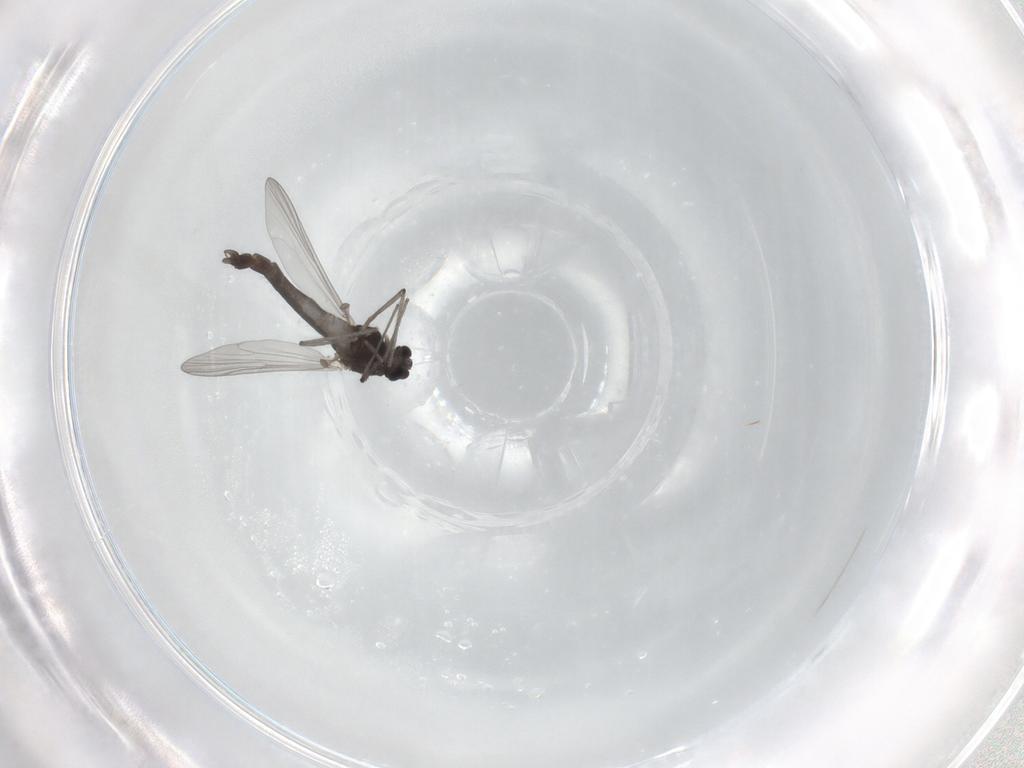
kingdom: Animalia
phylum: Arthropoda
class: Insecta
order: Diptera
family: Chironomidae
